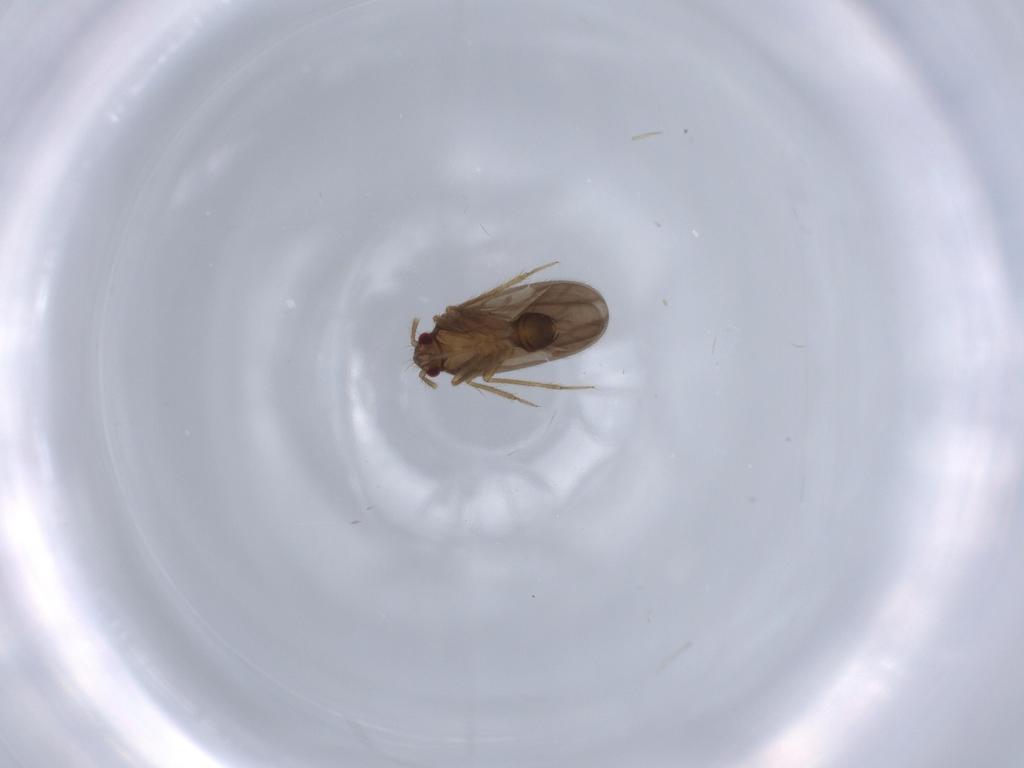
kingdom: Animalia
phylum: Arthropoda
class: Insecta
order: Hemiptera
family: Ceratocombidae
